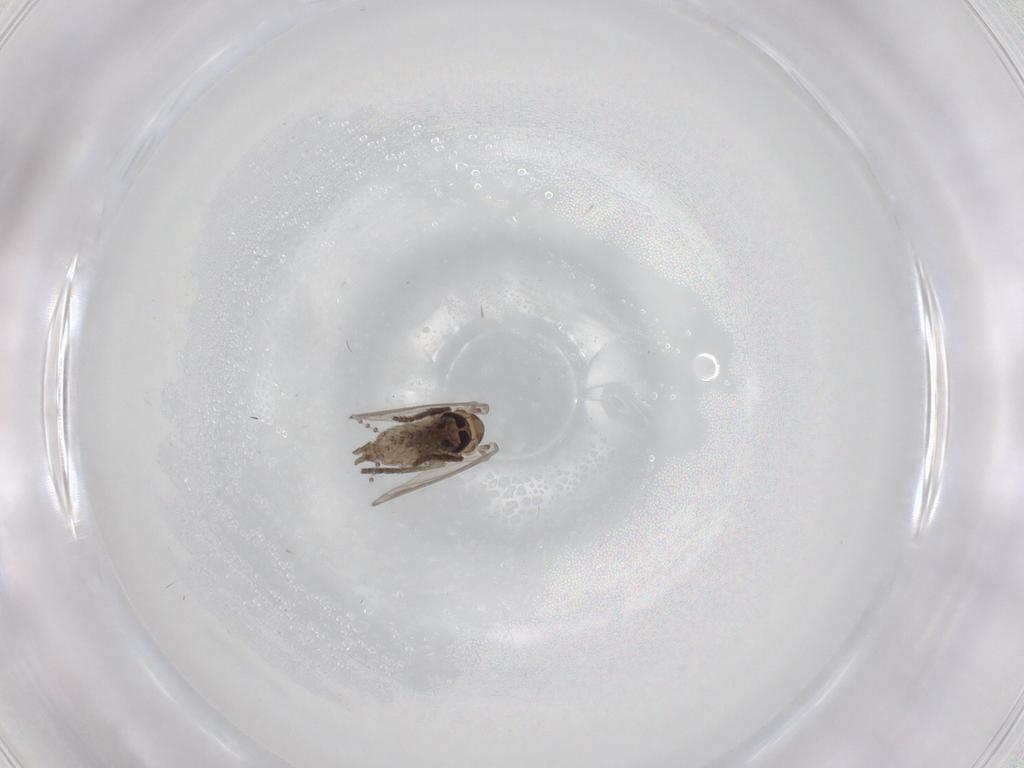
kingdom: Animalia
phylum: Arthropoda
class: Insecta
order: Diptera
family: Psychodidae
